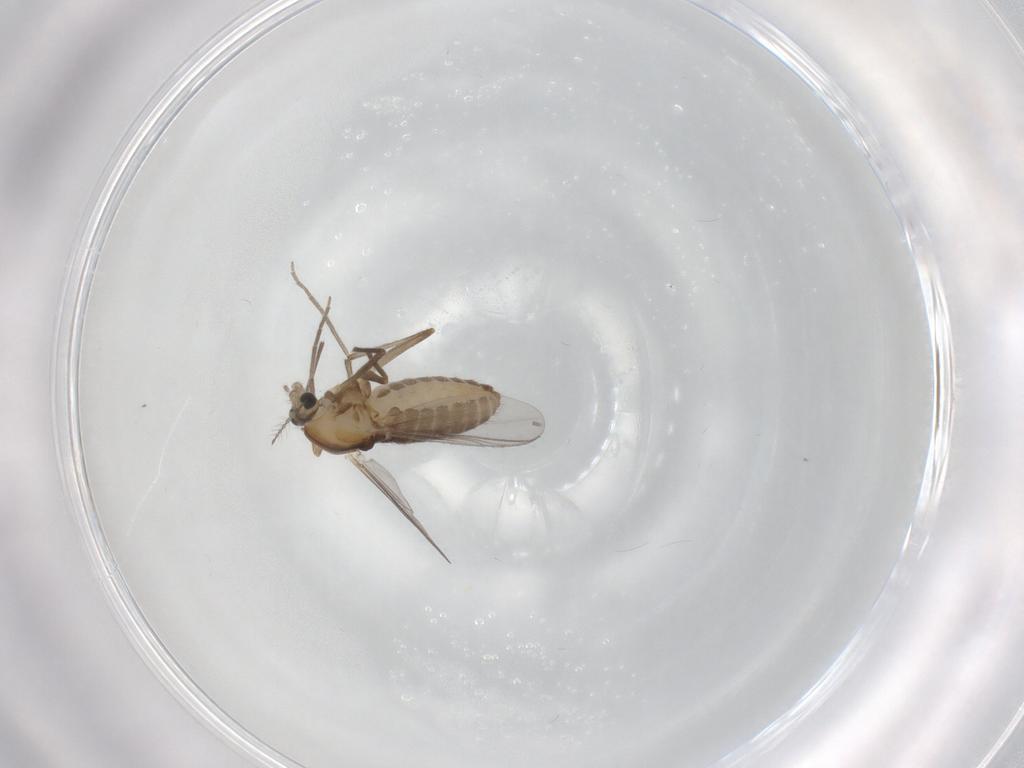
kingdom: Animalia
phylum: Arthropoda
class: Insecta
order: Diptera
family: Chironomidae
